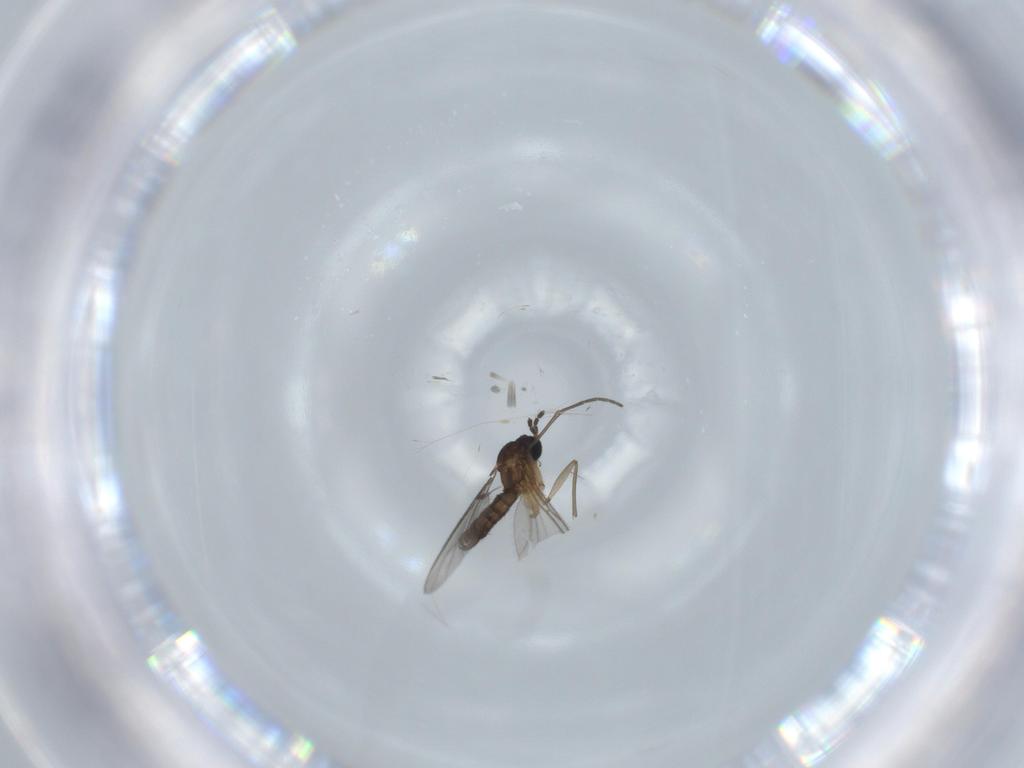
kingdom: Animalia
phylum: Arthropoda
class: Insecta
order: Diptera
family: Sciaridae
